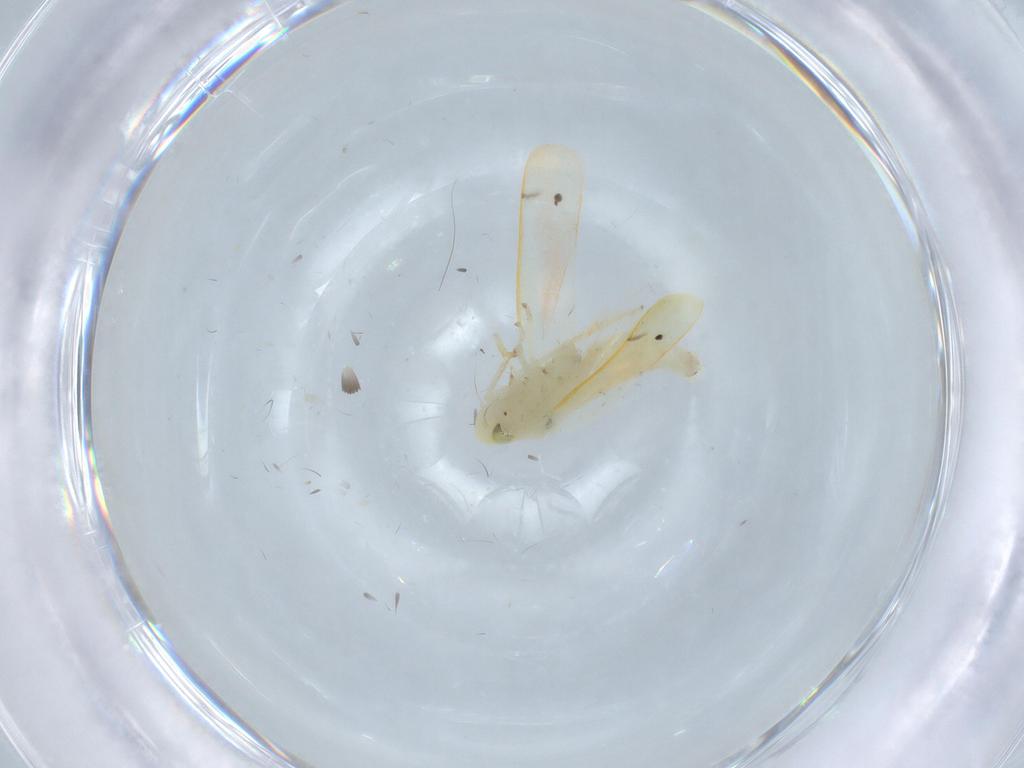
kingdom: Animalia
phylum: Arthropoda
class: Insecta
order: Hemiptera
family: Cicadellidae
